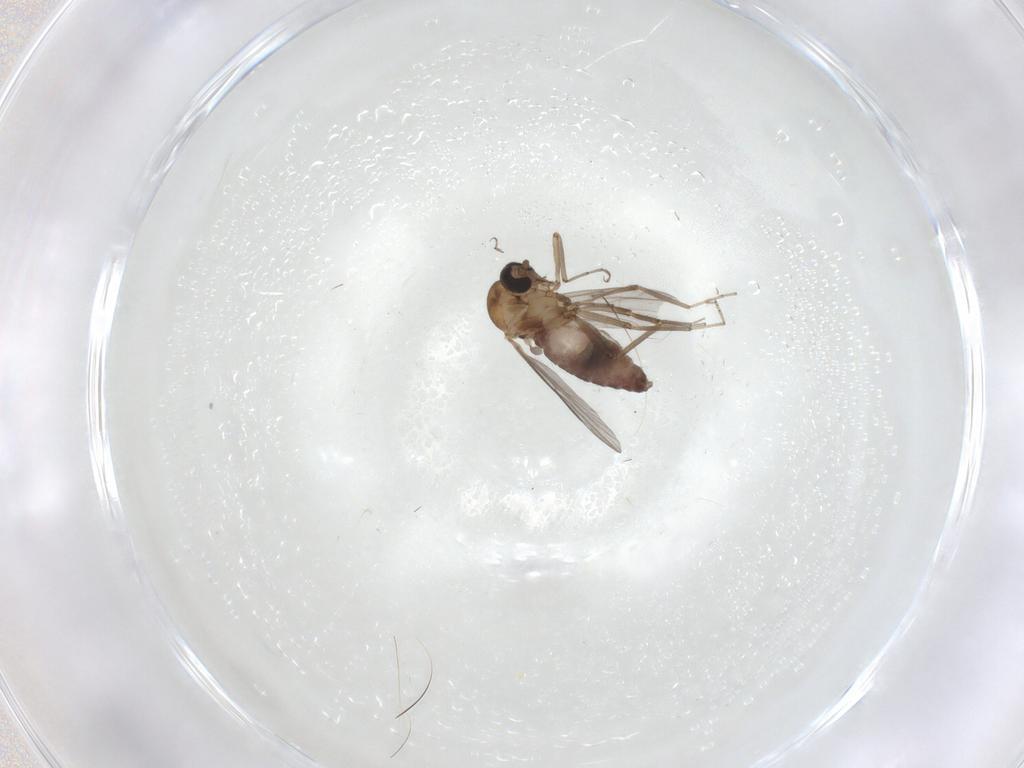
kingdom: Animalia
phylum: Arthropoda
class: Insecta
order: Diptera
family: Ceratopogonidae
